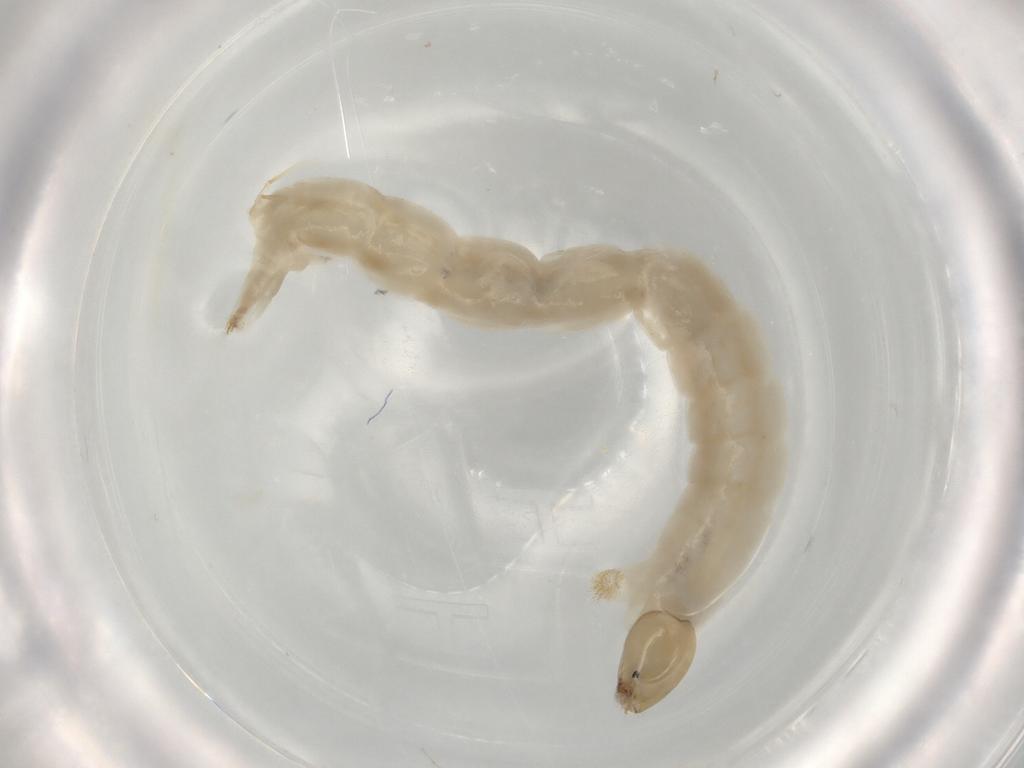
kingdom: Animalia
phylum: Arthropoda
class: Insecta
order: Diptera
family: Chironomidae
